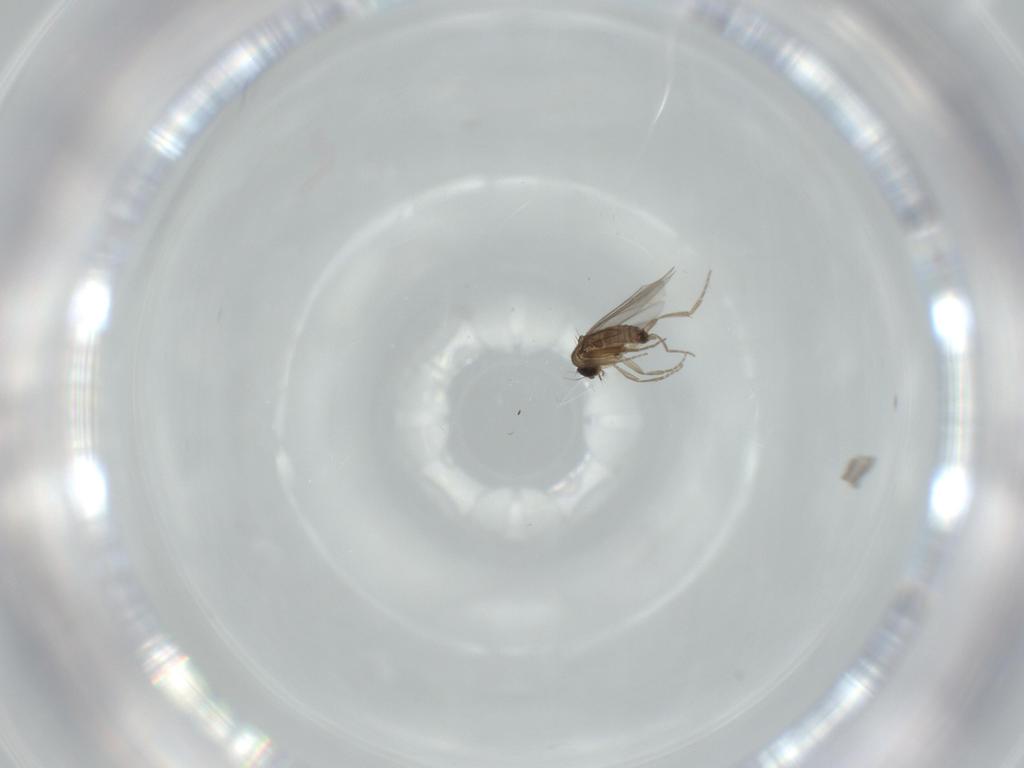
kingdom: Animalia
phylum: Arthropoda
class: Insecta
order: Diptera
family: Phoridae
